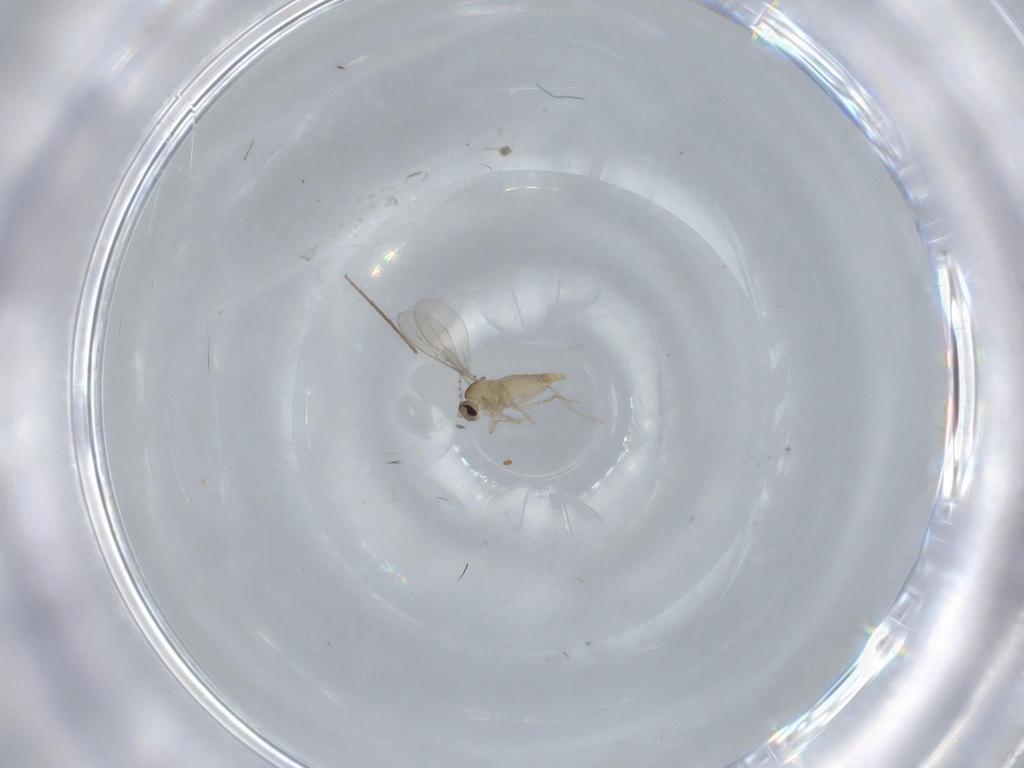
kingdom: Animalia
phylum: Arthropoda
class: Insecta
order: Diptera
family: Cecidomyiidae
